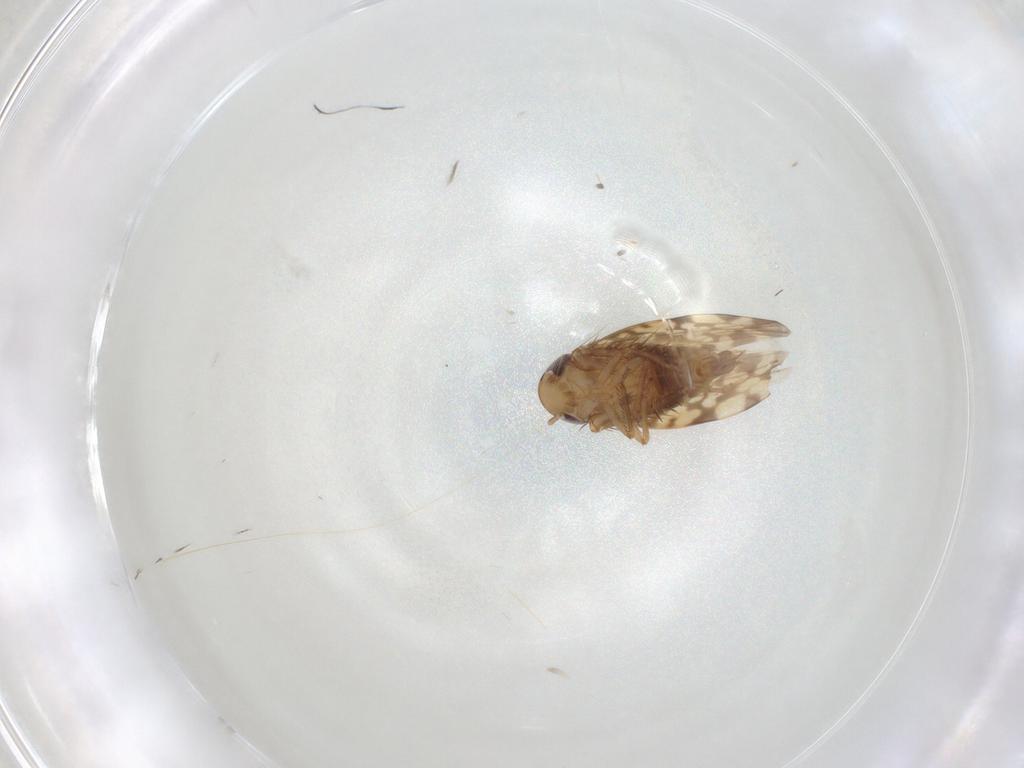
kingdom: Animalia
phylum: Arthropoda
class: Insecta
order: Hemiptera
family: Cicadellidae
